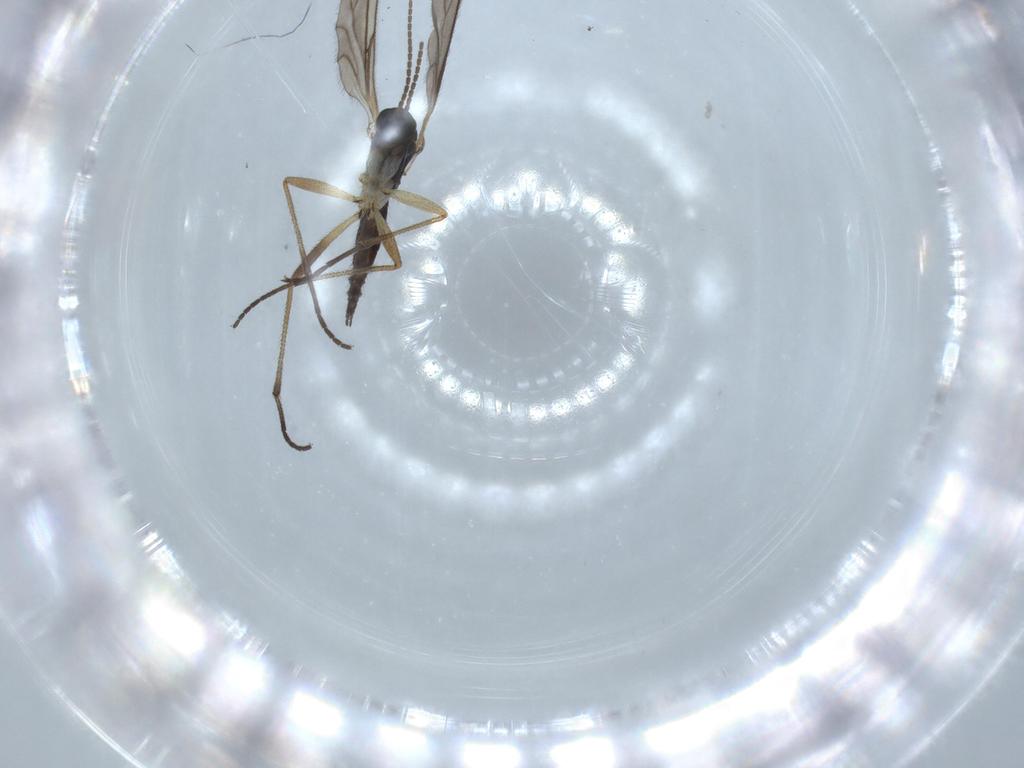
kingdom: Animalia
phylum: Arthropoda
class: Insecta
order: Diptera
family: Sciaridae
